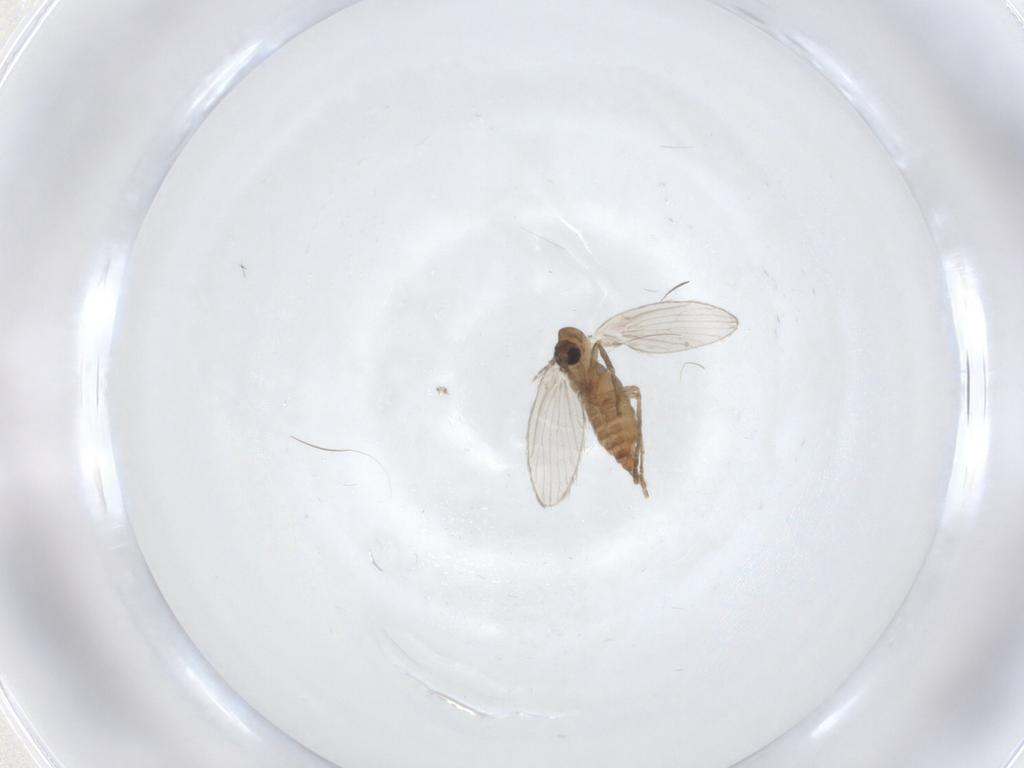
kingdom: Animalia
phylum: Arthropoda
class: Insecta
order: Diptera
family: Psychodidae
